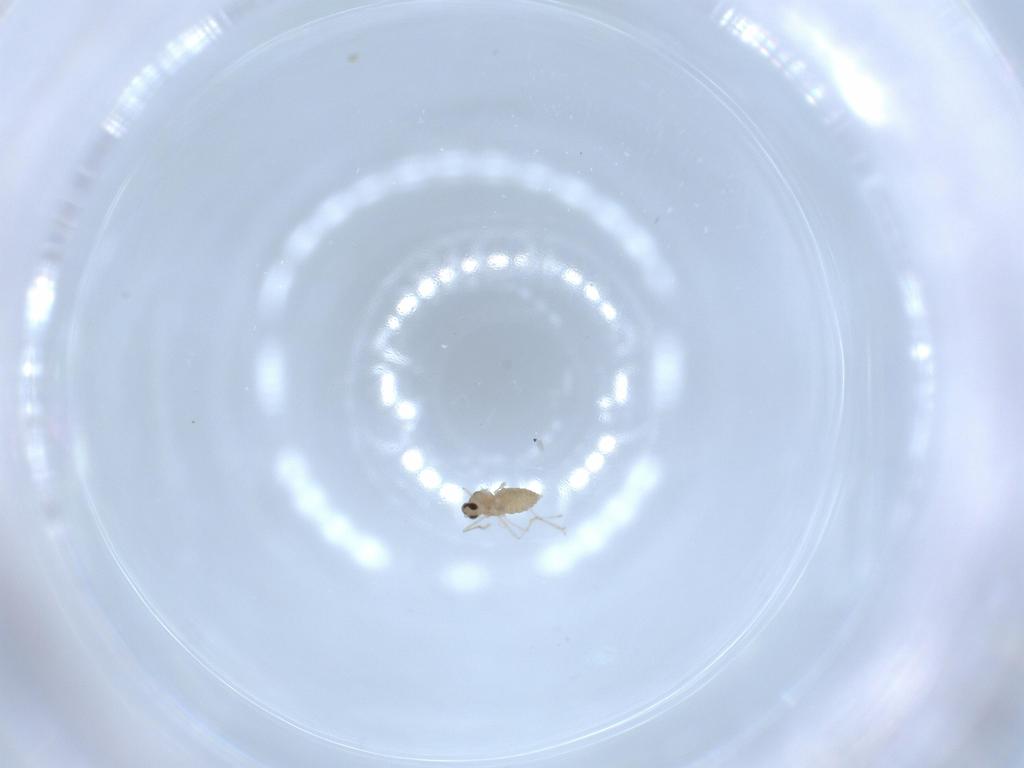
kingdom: Animalia
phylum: Arthropoda
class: Insecta
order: Diptera
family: Cecidomyiidae
